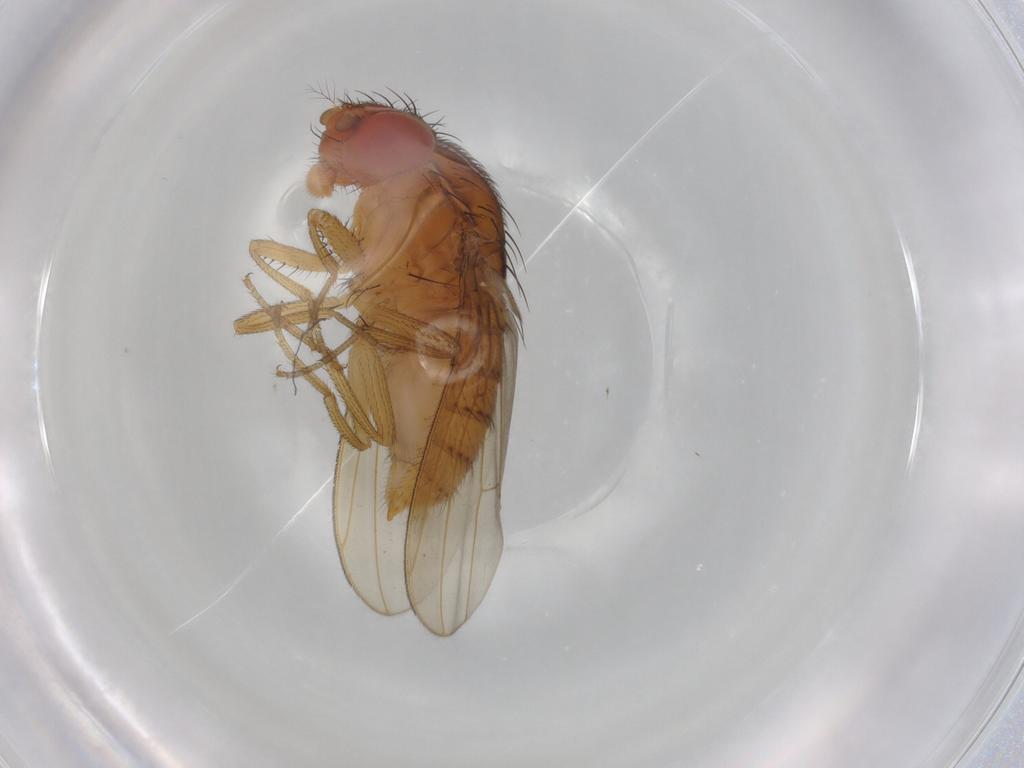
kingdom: Animalia
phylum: Arthropoda
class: Insecta
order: Diptera
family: Drosophilidae
